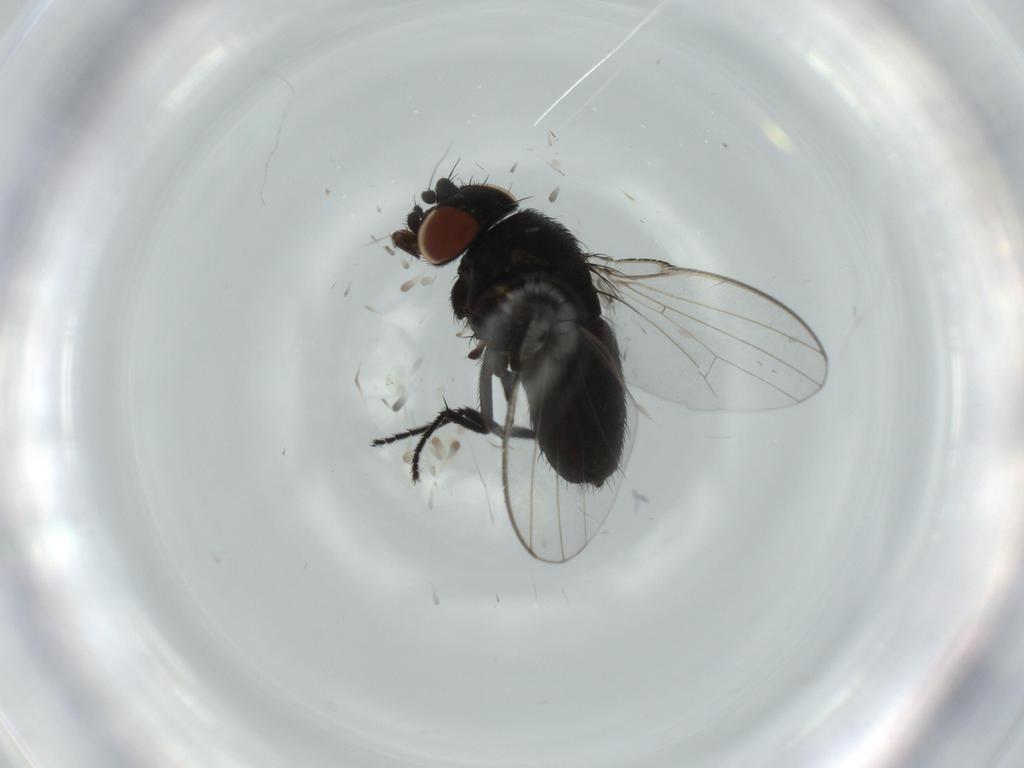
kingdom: Animalia
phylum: Arthropoda
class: Insecta
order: Diptera
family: Milichiidae
